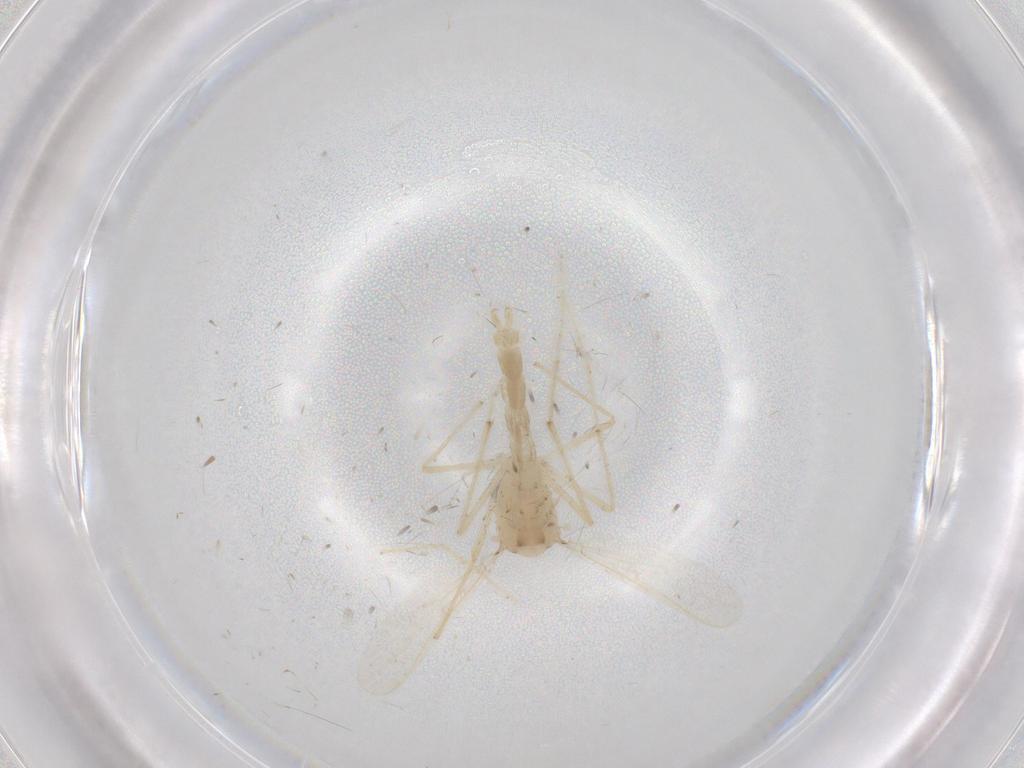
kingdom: Animalia
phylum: Arthropoda
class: Insecta
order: Diptera
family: Chironomidae
